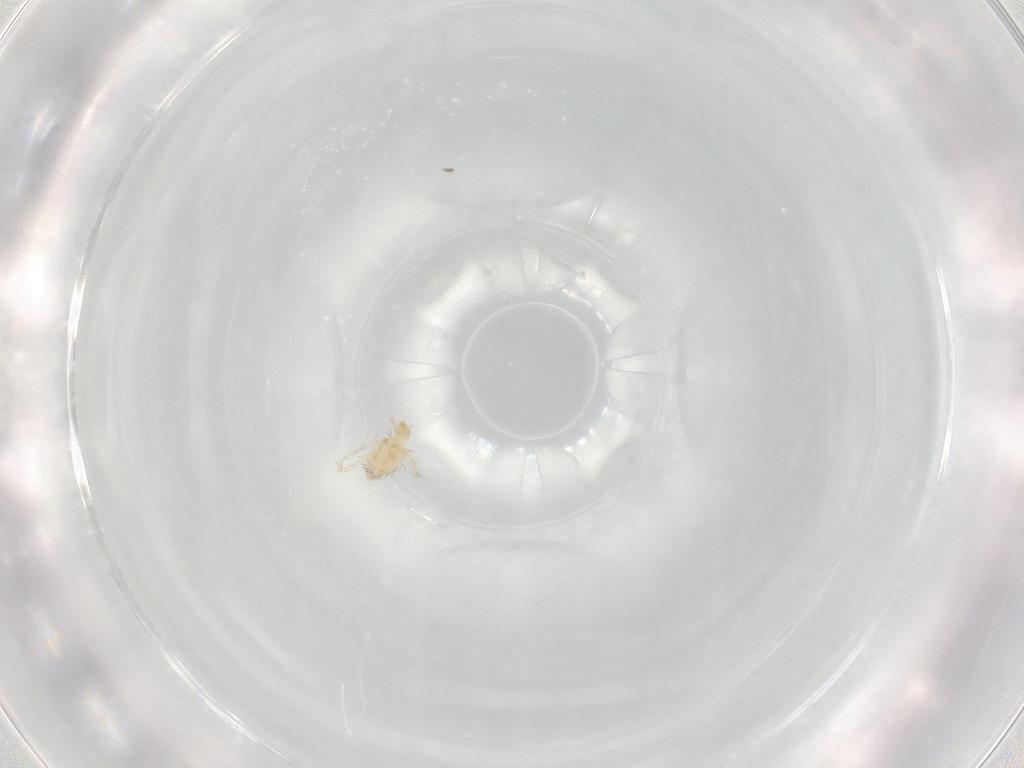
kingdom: Animalia
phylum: Arthropoda
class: Arachnida
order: Trombidiformes
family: Erythraeidae
